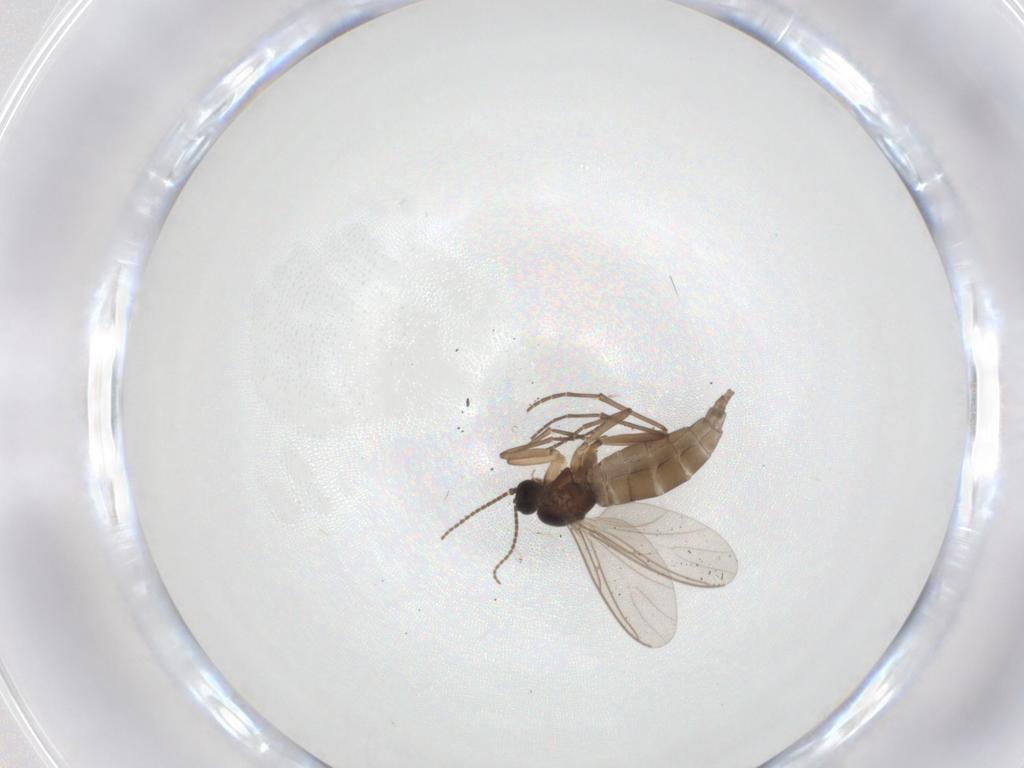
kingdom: Animalia
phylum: Arthropoda
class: Insecta
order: Diptera
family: Sciaridae
